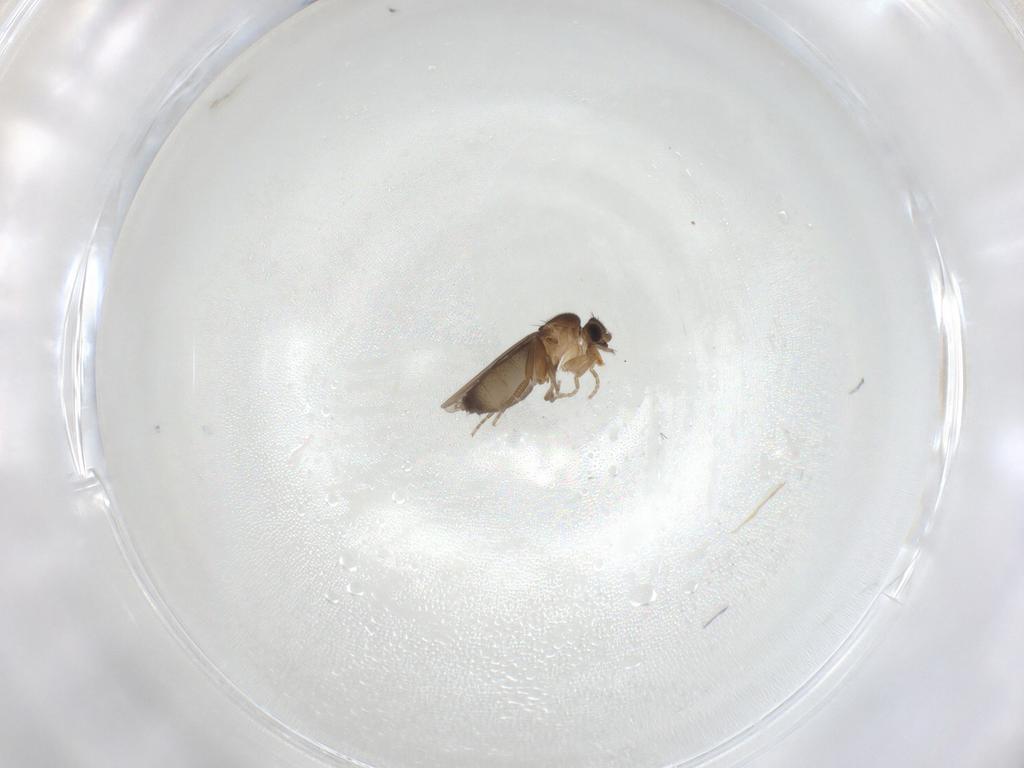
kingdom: Animalia
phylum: Arthropoda
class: Insecta
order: Diptera
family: Phoridae
